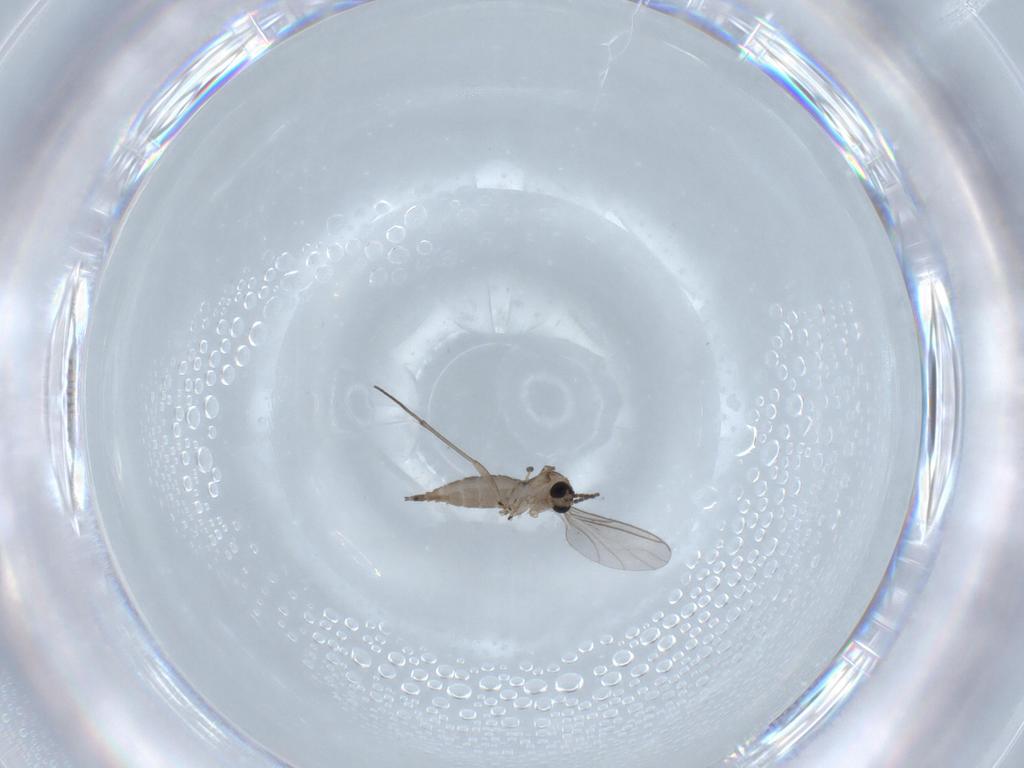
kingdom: Animalia
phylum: Arthropoda
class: Insecta
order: Diptera
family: Sciaridae
